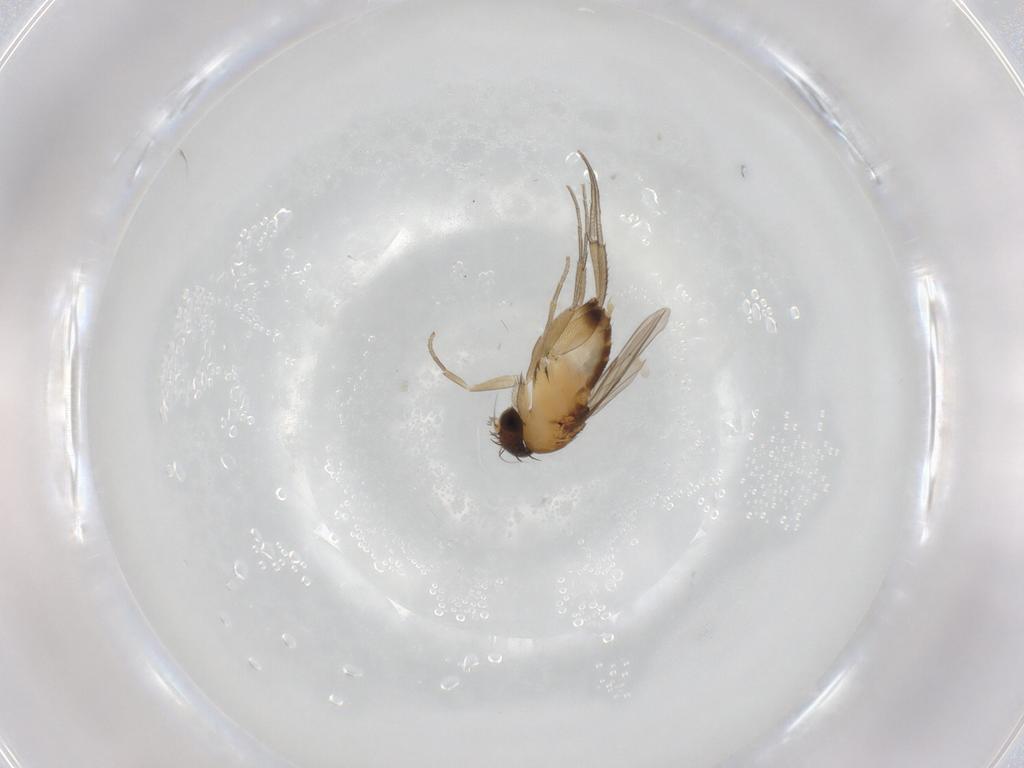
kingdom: Animalia
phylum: Arthropoda
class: Insecta
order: Diptera
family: Phoridae
